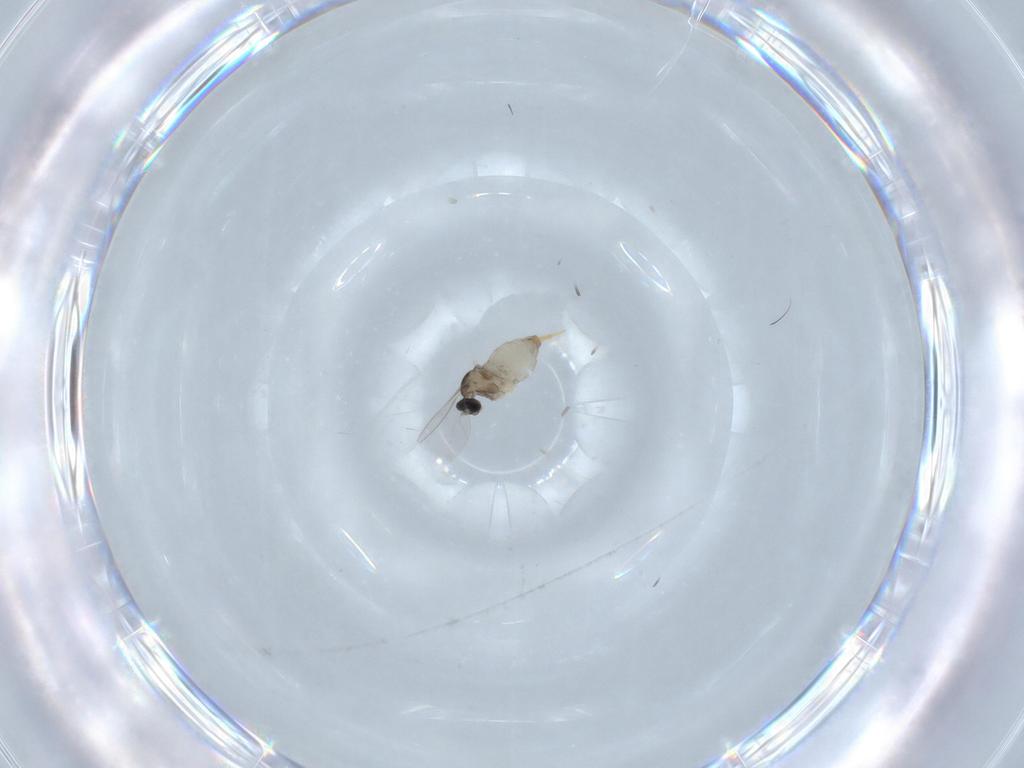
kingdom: Animalia
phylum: Arthropoda
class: Insecta
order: Diptera
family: Cecidomyiidae
